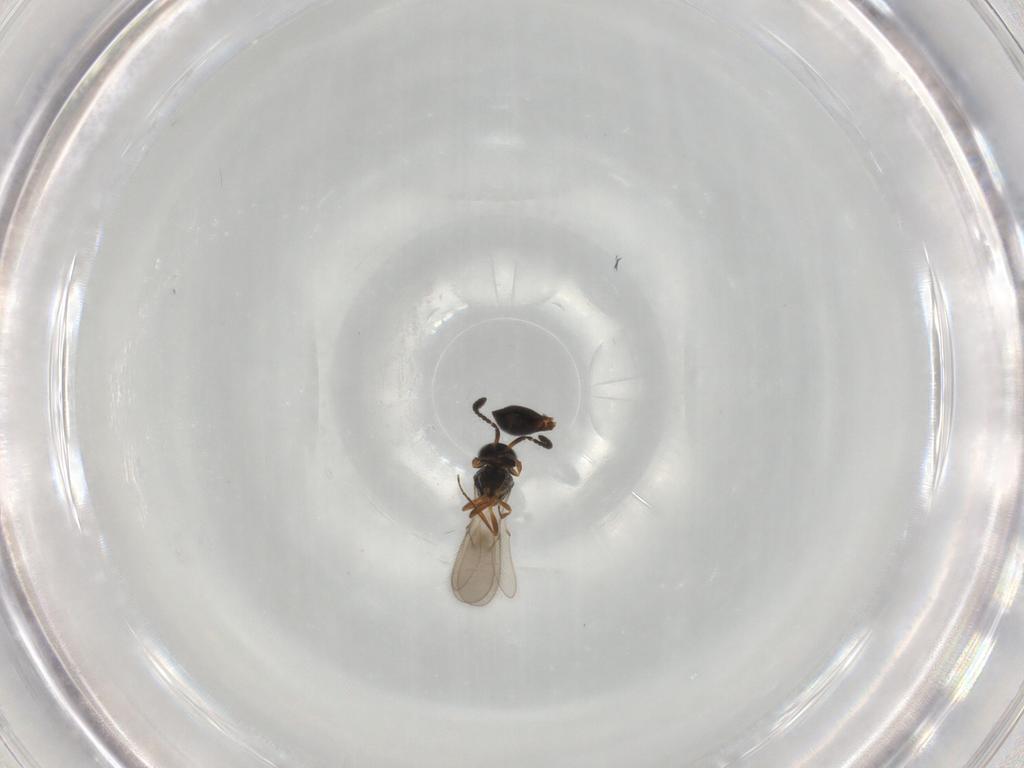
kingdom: Animalia
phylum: Arthropoda
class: Insecta
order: Hymenoptera
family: Scelionidae
